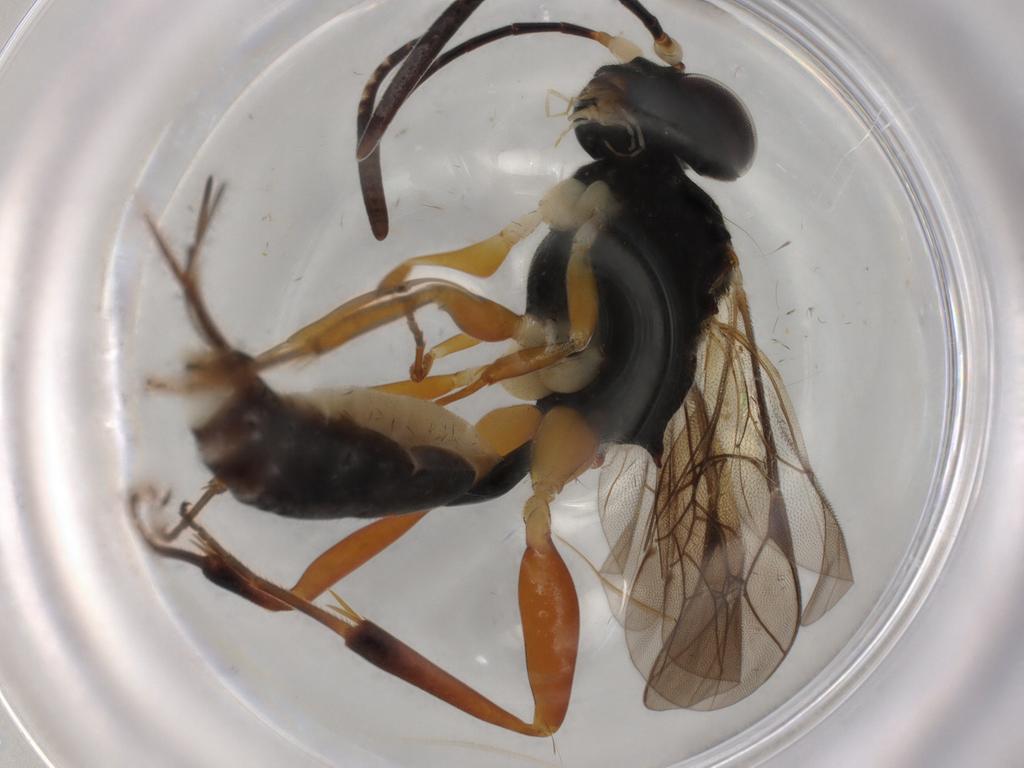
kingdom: Animalia
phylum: Arthropoda
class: Insecta
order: Hymenoptera
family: Ichneumonidae
